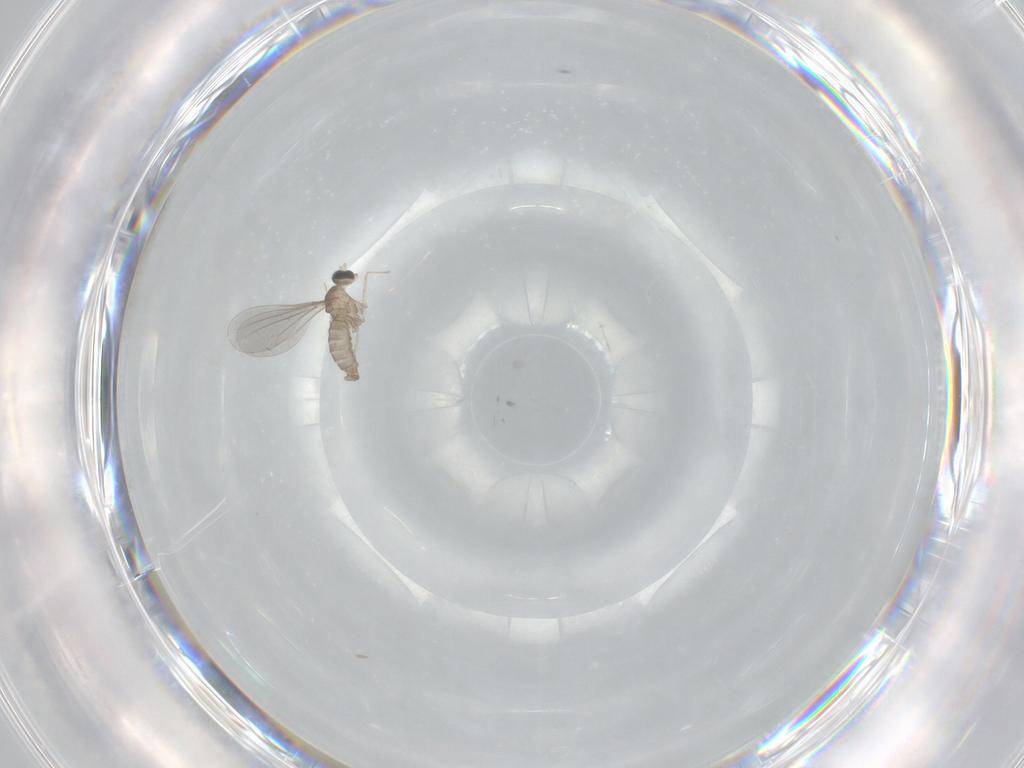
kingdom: Animalia
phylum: Arthropoda
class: Insecta
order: Diptera
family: Cecidomyiidae
